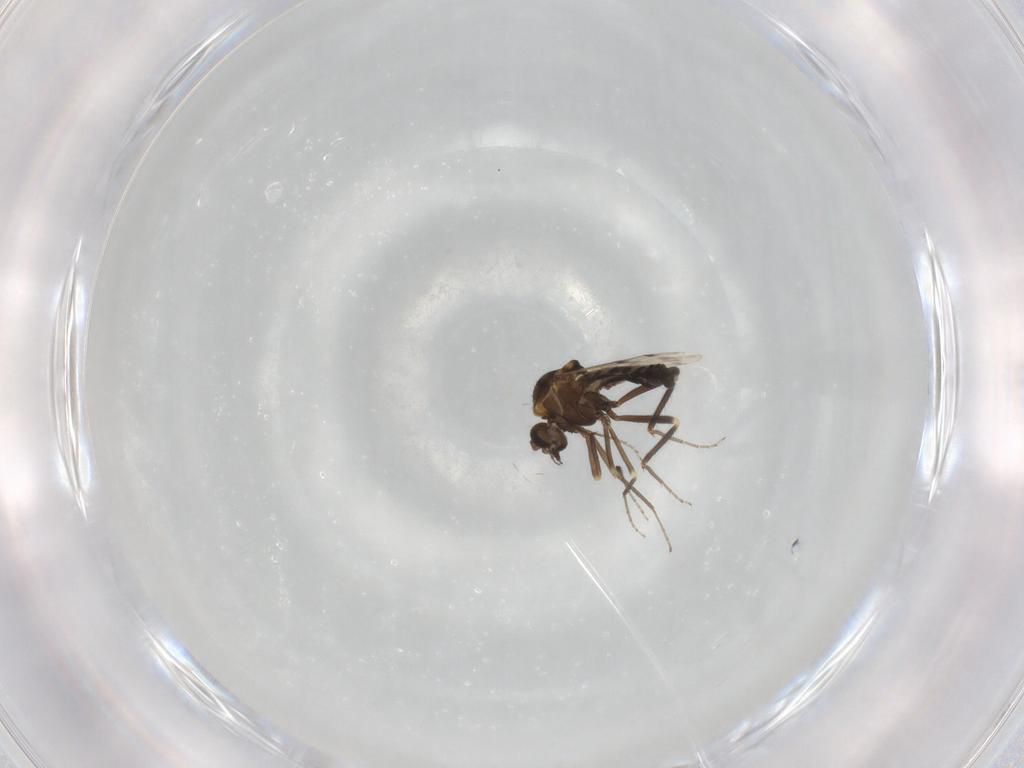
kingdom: Animalia
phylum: Arthropoda
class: Insecta
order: Diptera
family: Ceratopogonidae
